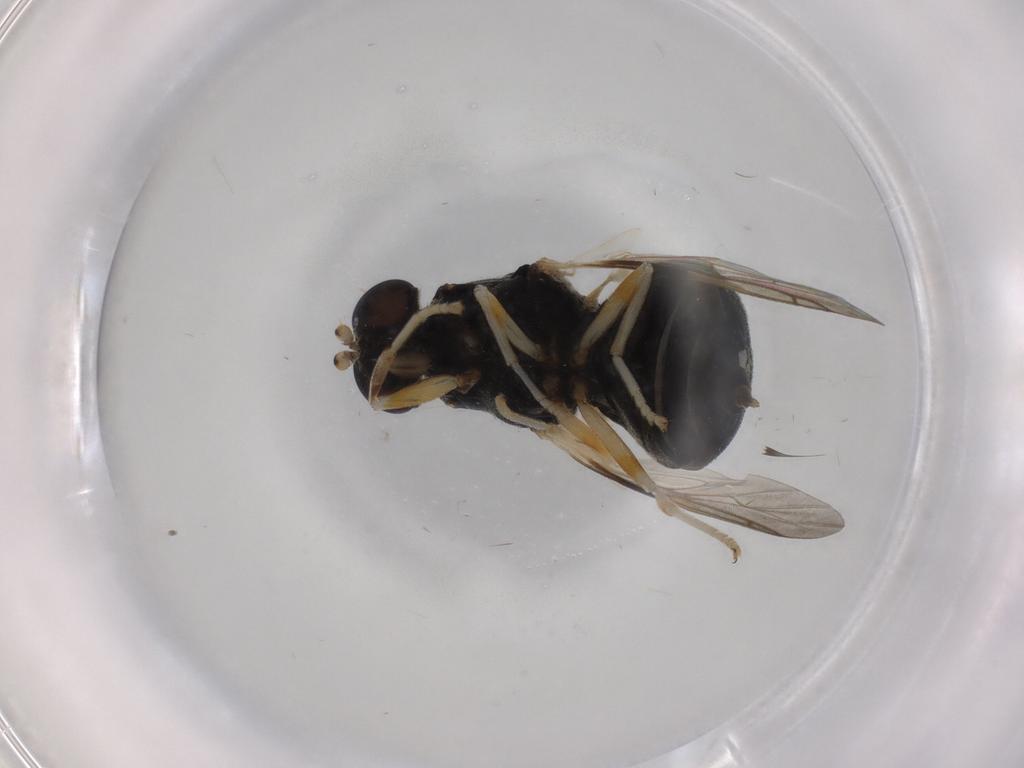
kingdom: Animalia
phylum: Arthropoda
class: Insecta
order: Diptera
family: Stratiomyidae
